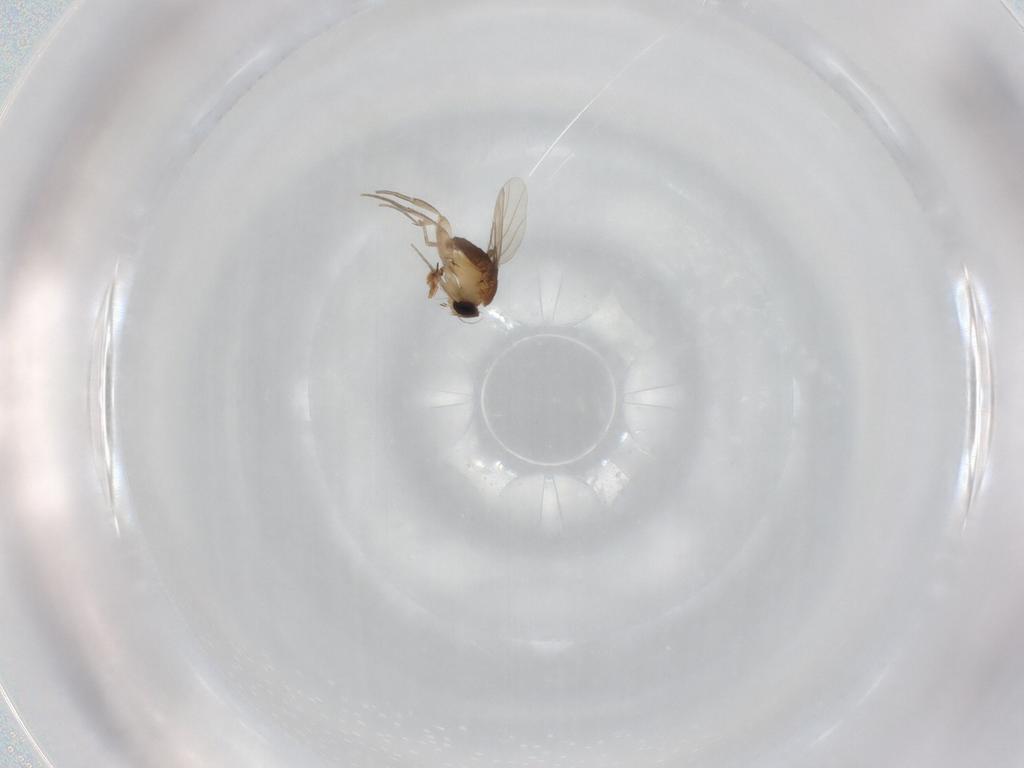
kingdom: Animalia
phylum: Arthropoda
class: Insecta
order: Diptera
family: Phoridae
